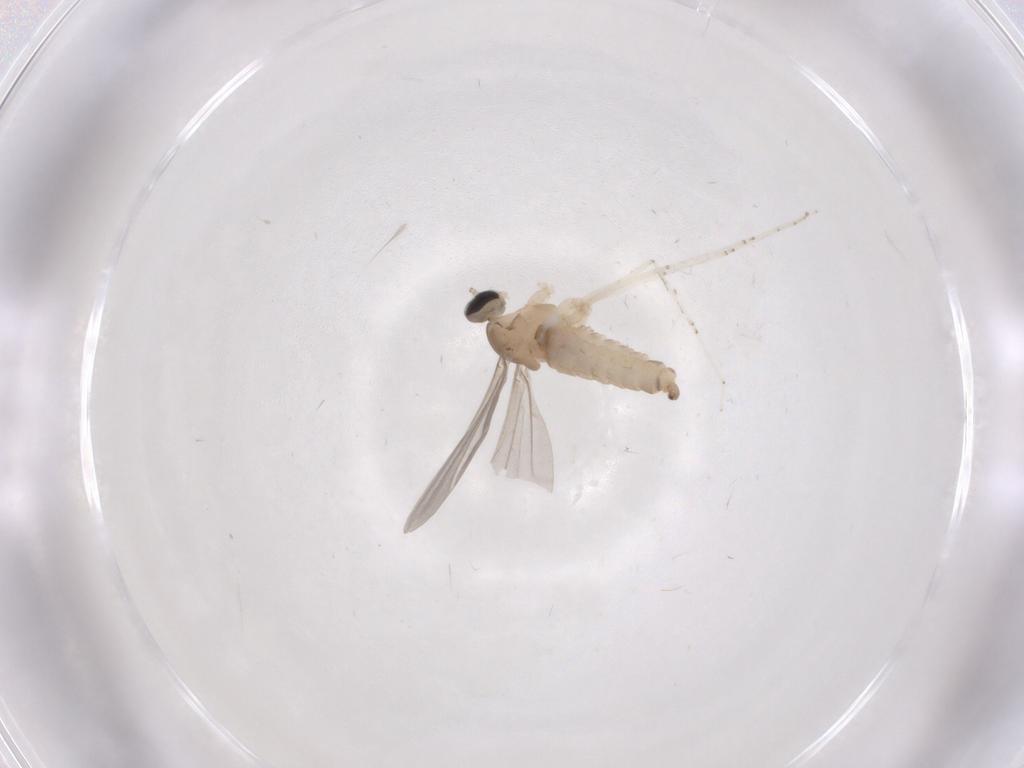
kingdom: Animalia
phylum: Arthropoda
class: Insecta
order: Diptera
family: Cecidomyiidae
